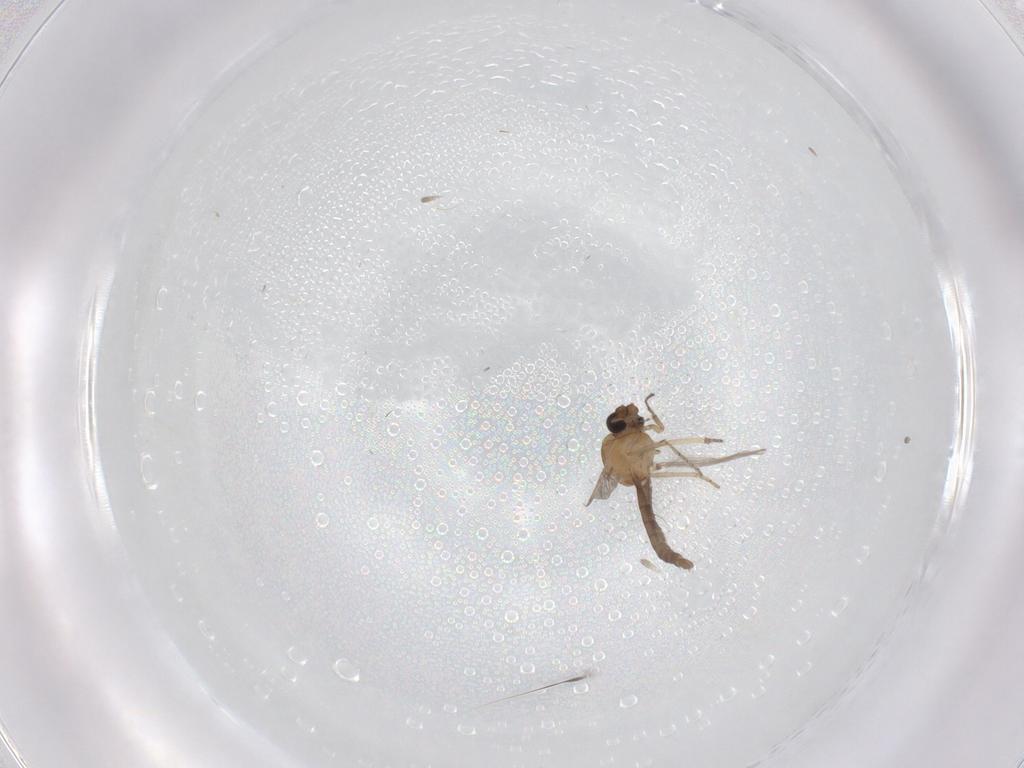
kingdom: Animalia
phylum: Arthropoda
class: Insecta
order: Diptera
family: Ceratopogonidae
